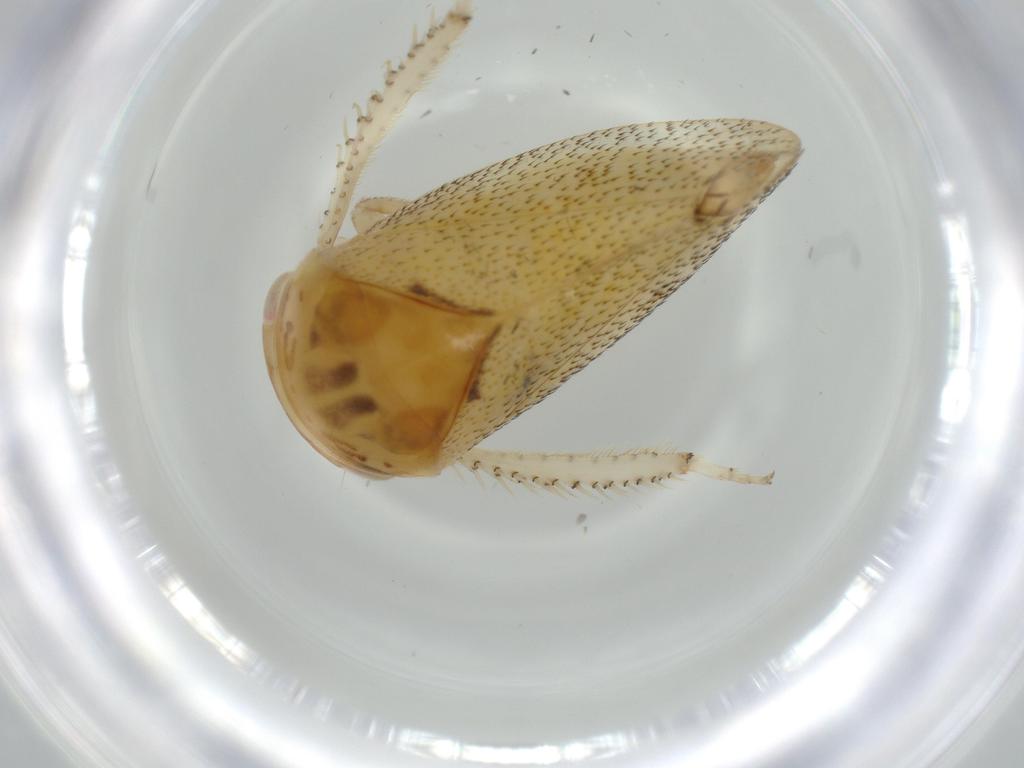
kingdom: Animalia
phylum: Arthropoda
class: Insecta
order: Hemiptera
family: Cicadellidae
